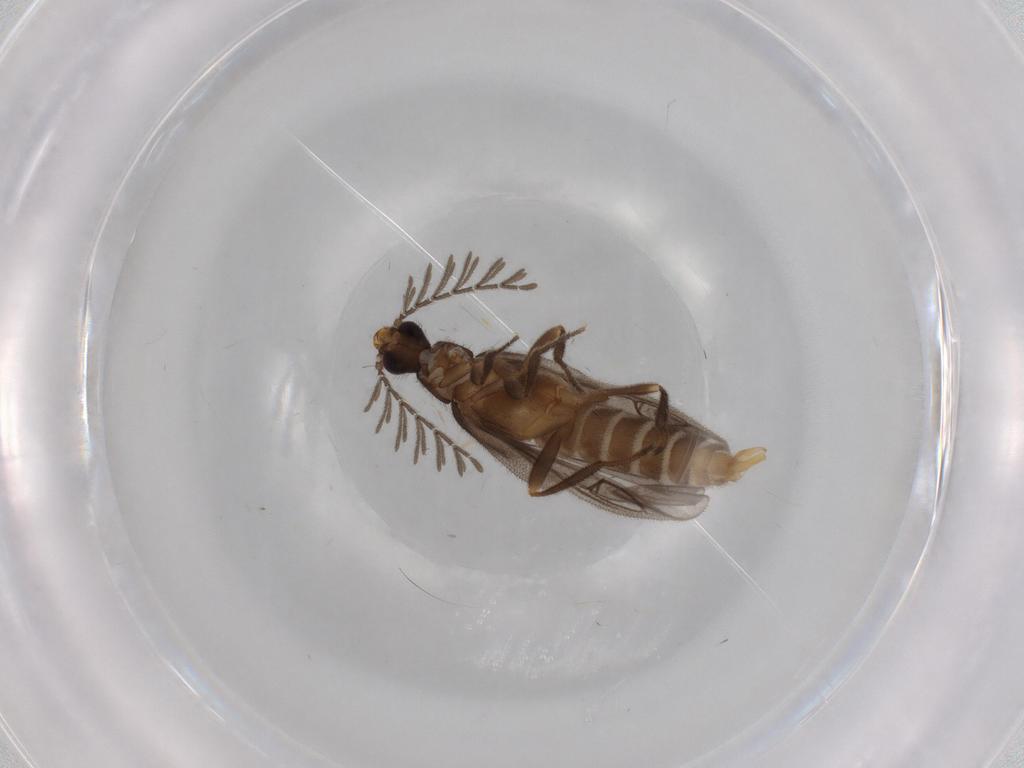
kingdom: Animalia
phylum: Arthropoda
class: Insecta
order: Coleoptera
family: Tenebrionidae
